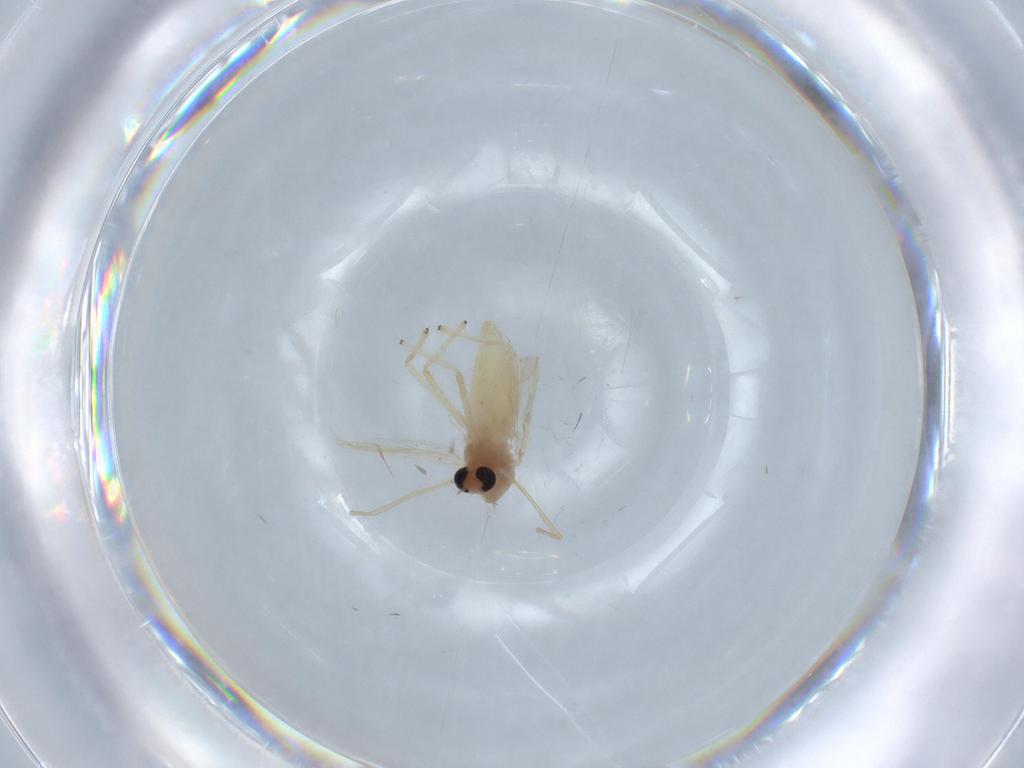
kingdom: Animalia
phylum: Arthropoda
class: Insecta
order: Diptera
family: Chironomidae
